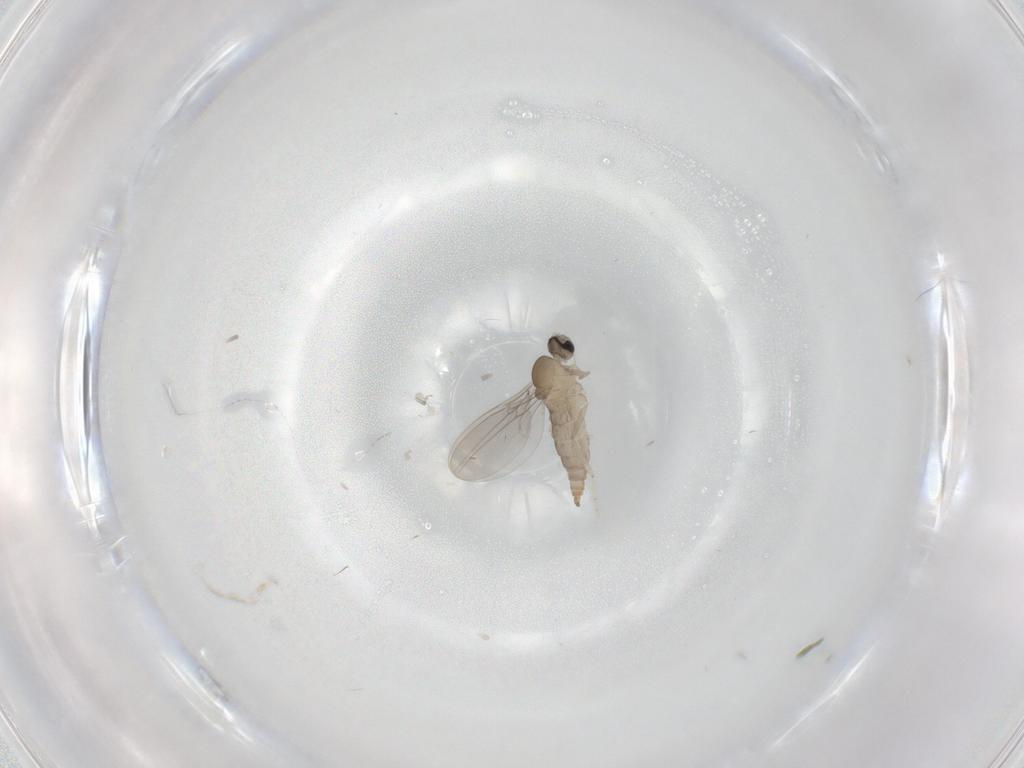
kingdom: Animalia
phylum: Arthropoda
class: Insecta
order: Diptera
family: Cecidomyiidae
